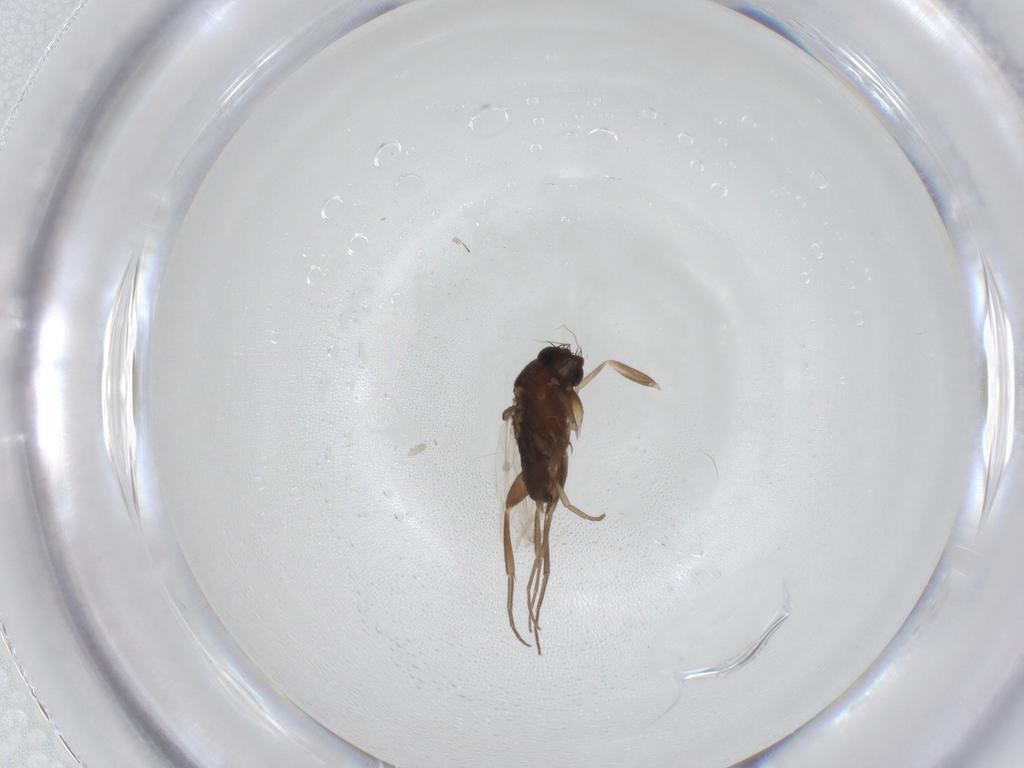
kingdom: Animalia
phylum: Arthropoda
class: Insecta
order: Diptera
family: Phoridae
